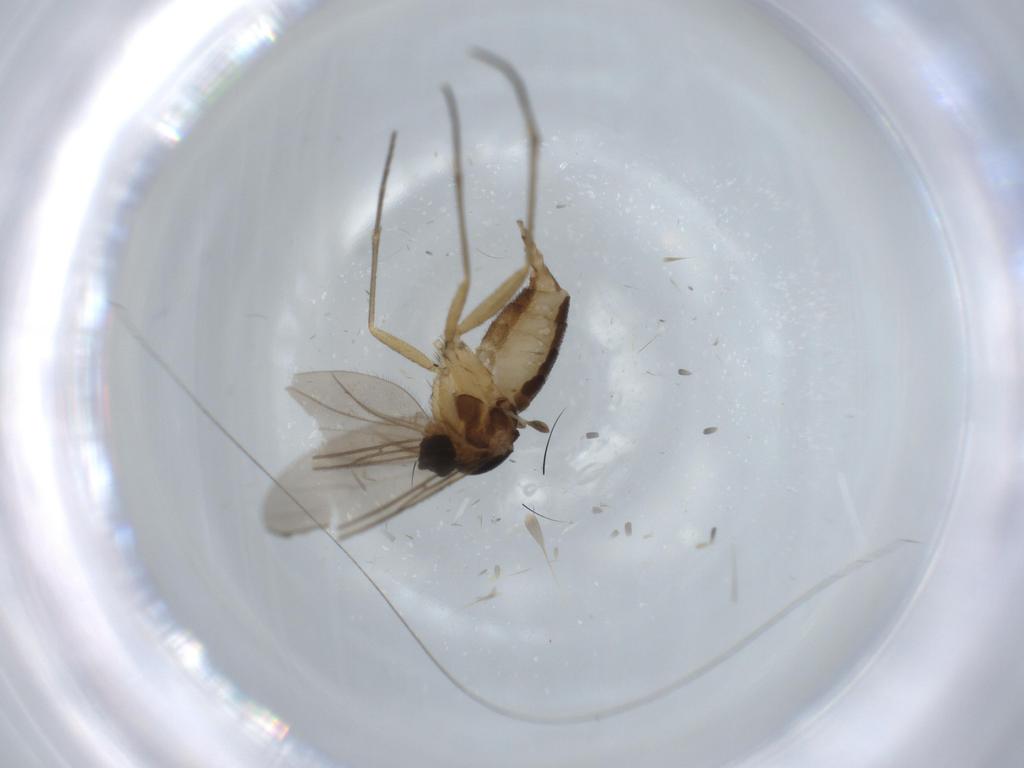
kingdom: Animalia
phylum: Arthropoda
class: Insecta
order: Diptera
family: Sciaridae
